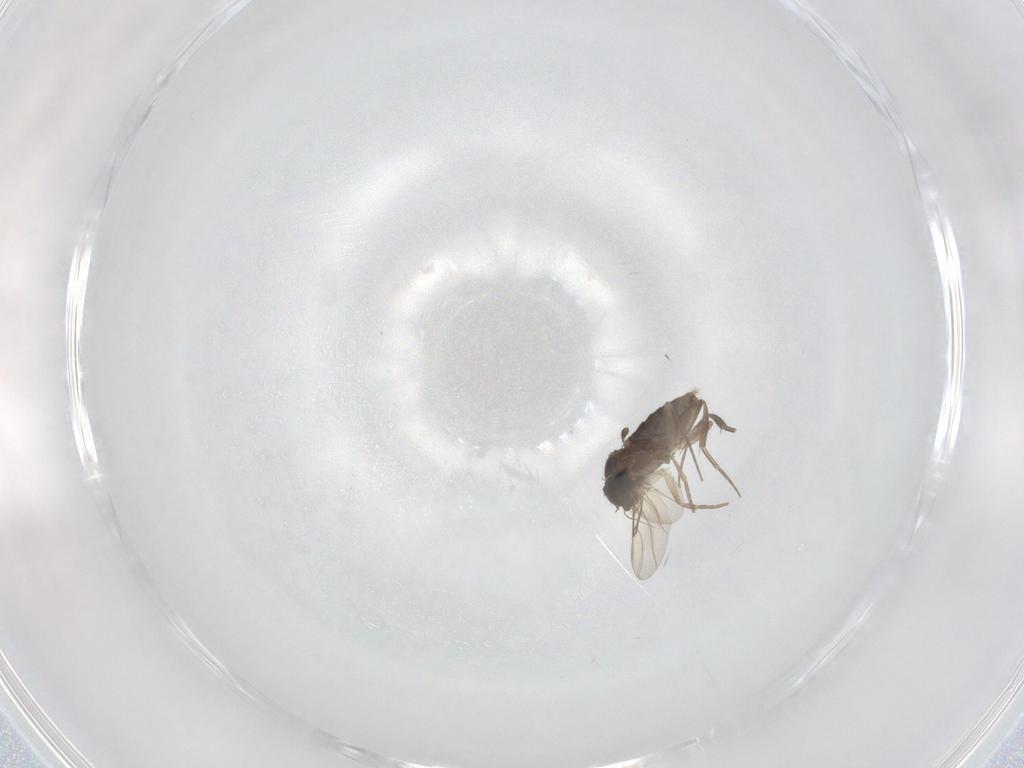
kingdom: Animalia
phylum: Arthropoda
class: Insecta
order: Diptera
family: Phoridae
